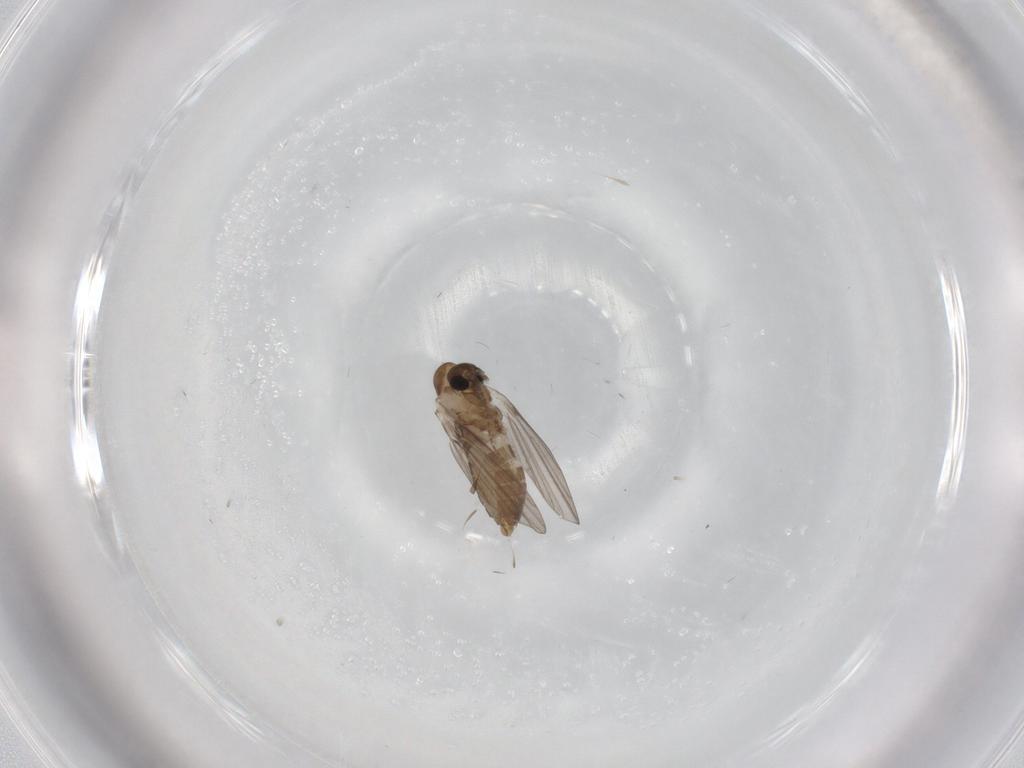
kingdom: Animalia
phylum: Arthropoda
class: Insecta
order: Diptera
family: Sciaridae
